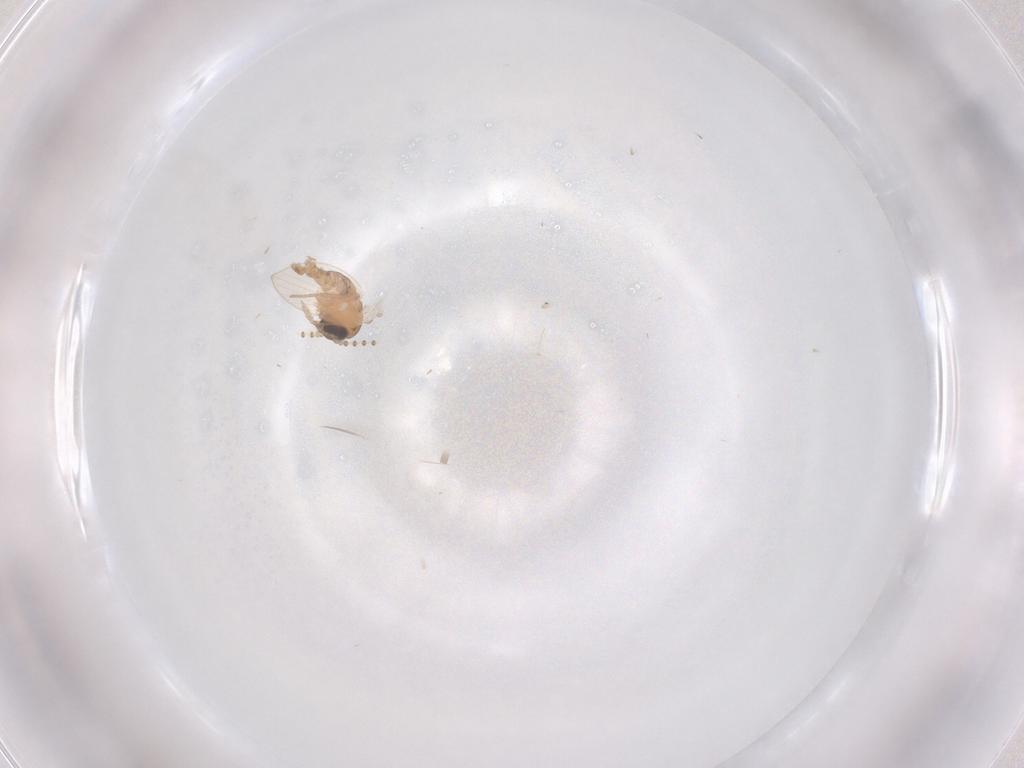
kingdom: Animalia
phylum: Arthropoda
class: Insecta
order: Diptera
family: Psychodidae
